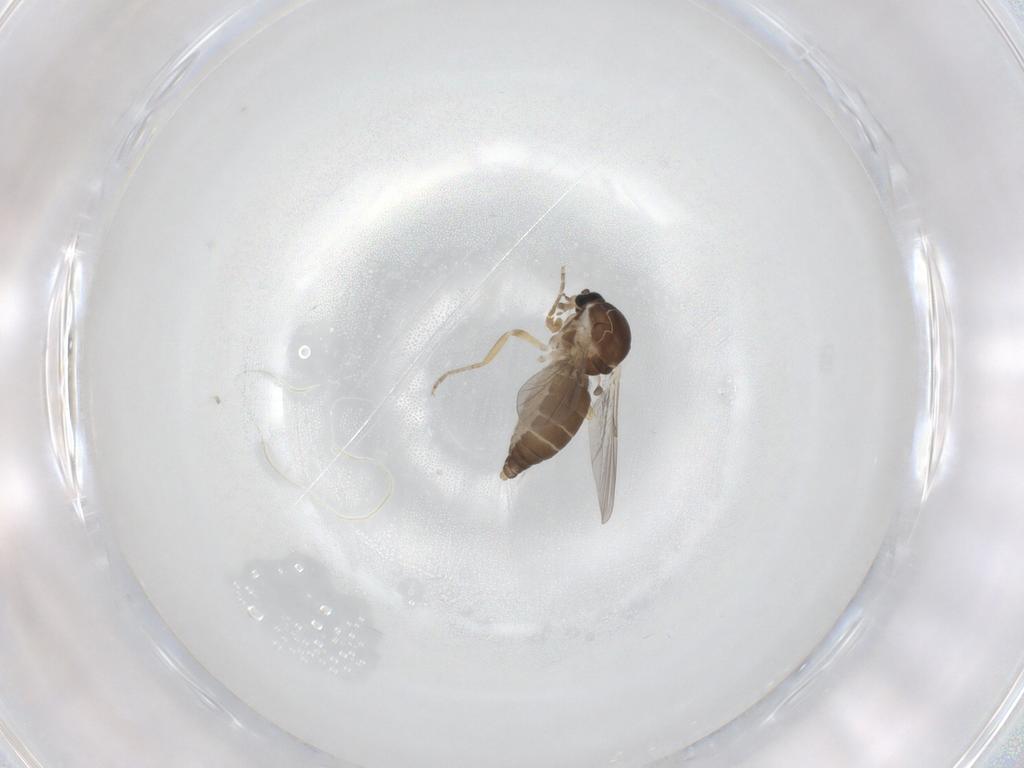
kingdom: Animalia
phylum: Arthropoda
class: Insecta
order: Diptera
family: Ceratopogonidae
